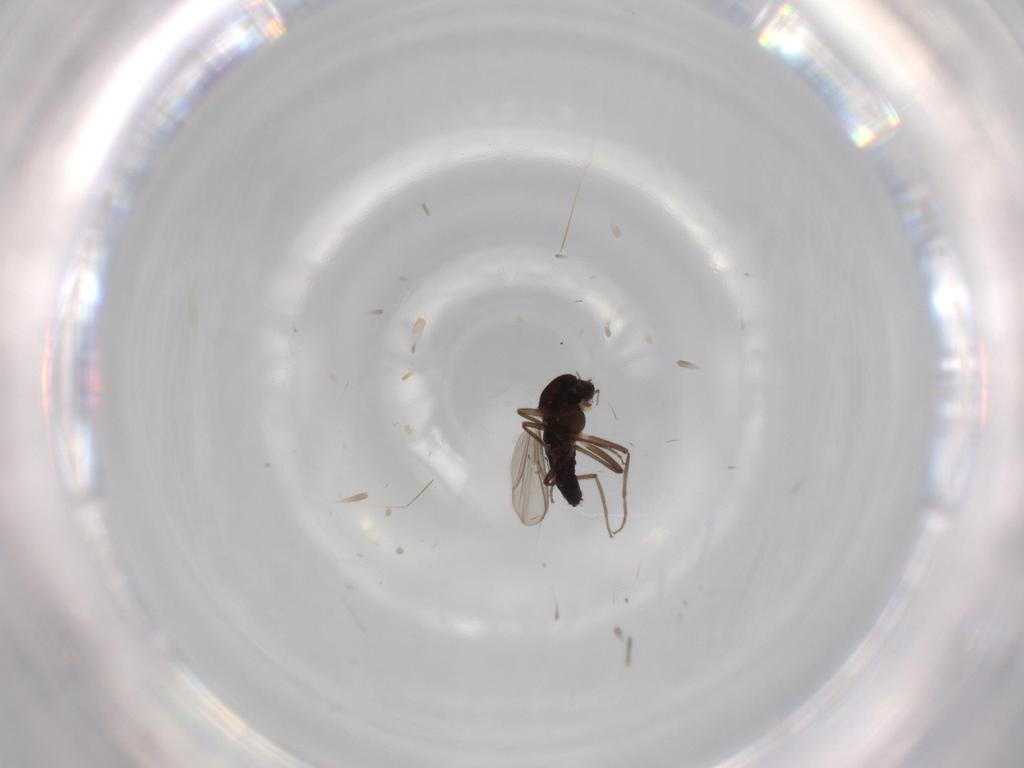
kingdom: Animalia
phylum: Arthropoda
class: Insecta
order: Diptera
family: Chironomidae
